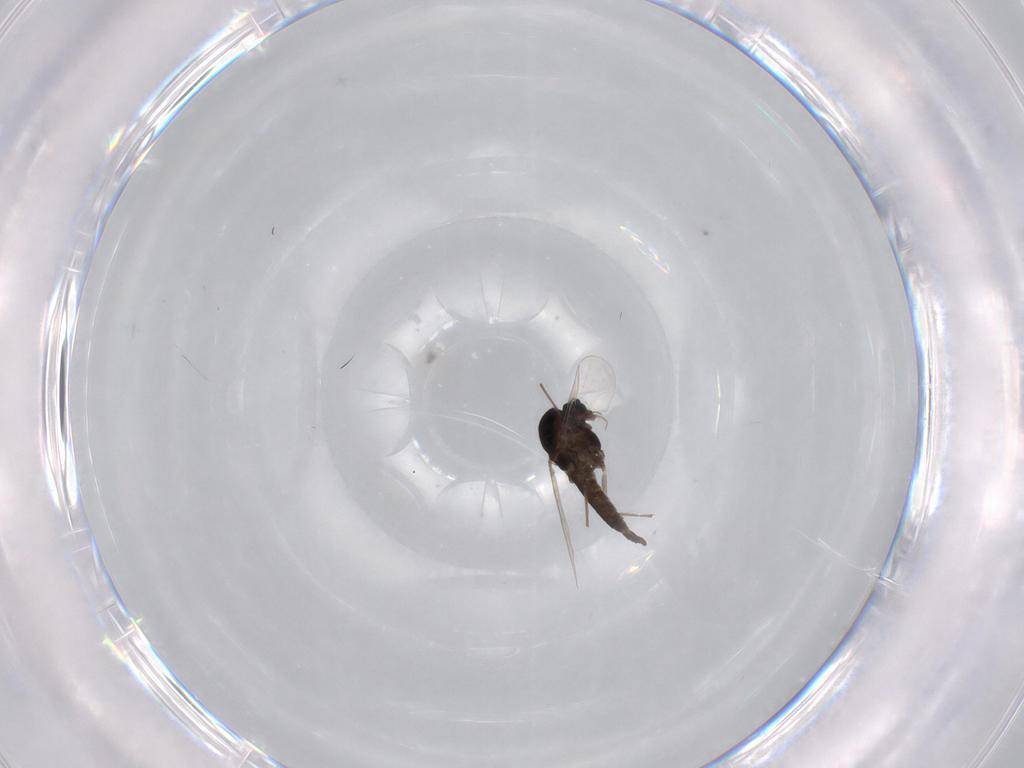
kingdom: Animalia
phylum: Arthropoda
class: Insecta
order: Diptera
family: Chironomidae
